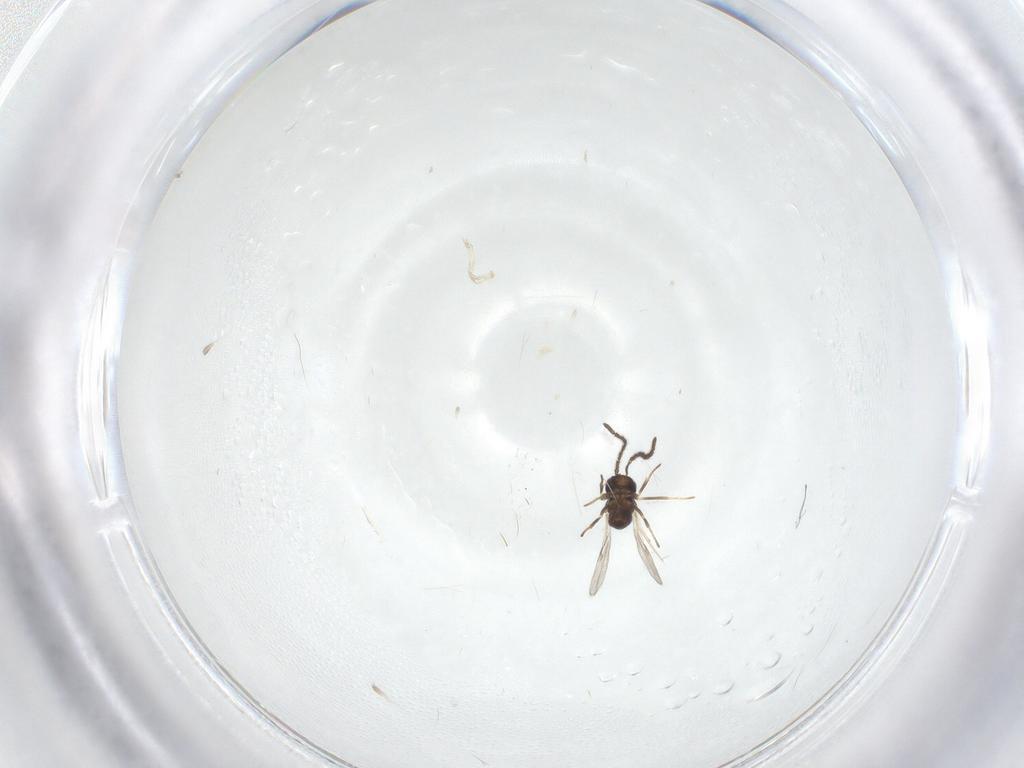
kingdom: Animalia
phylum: Arthropoda
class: Insecta
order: Hymenoptera
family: Encyrtidae
